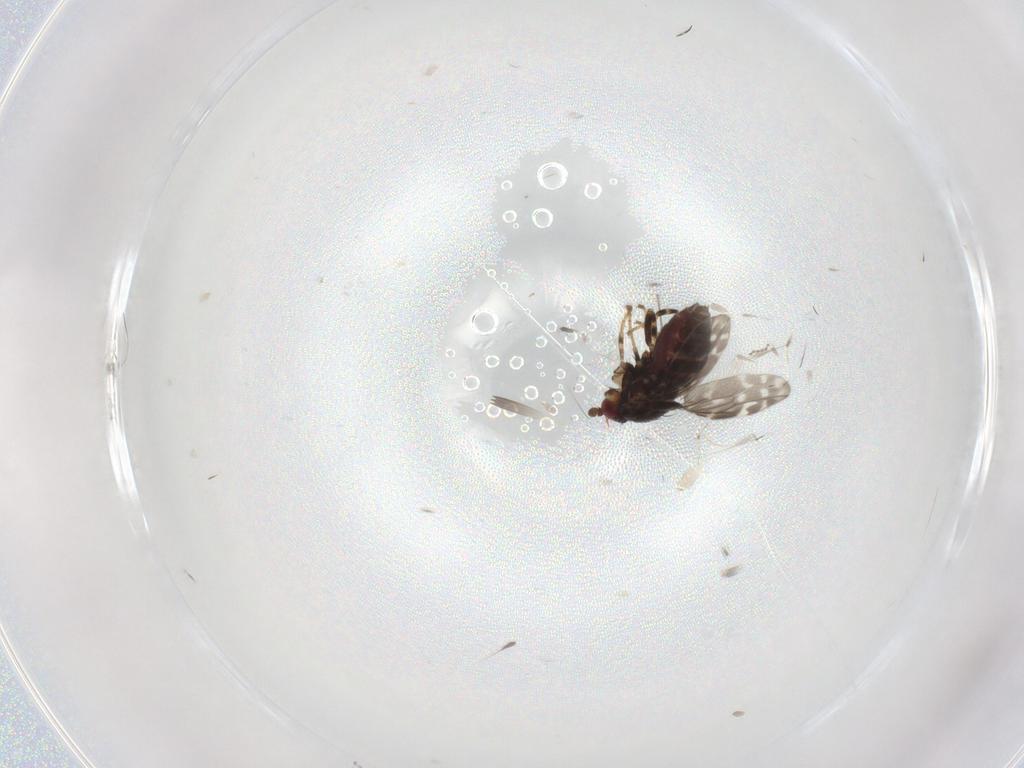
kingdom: Animalia
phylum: Arthropoda
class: Insecta
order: Diptera
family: Sphaeroceridae
